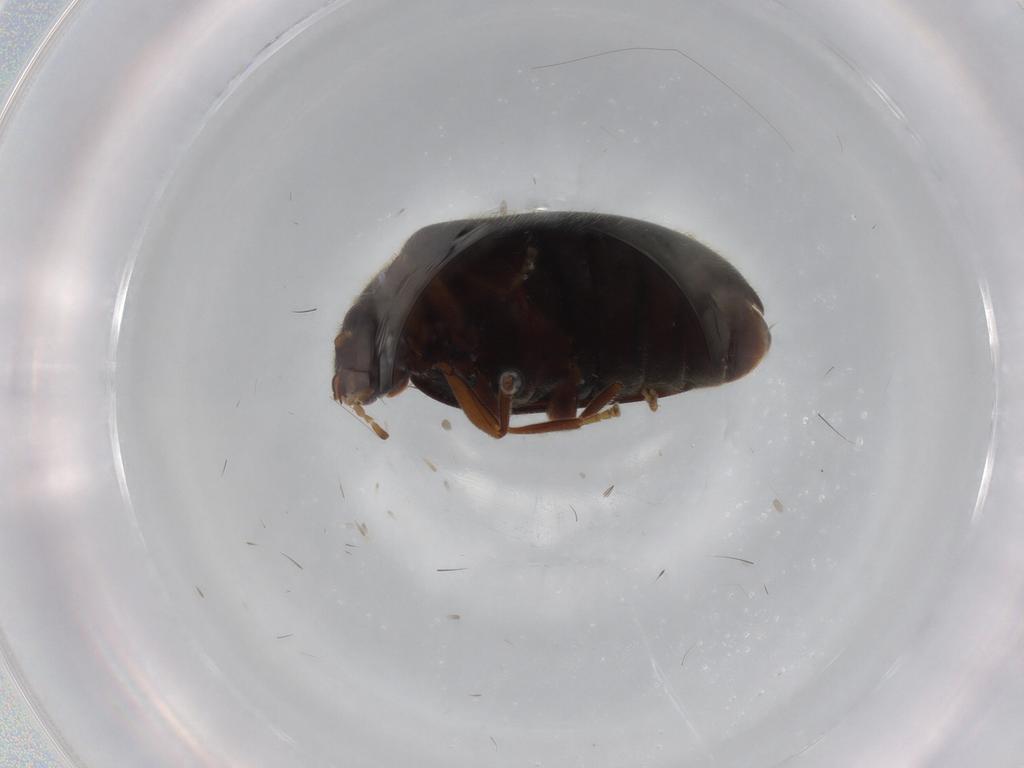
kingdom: Animalia
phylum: Arthropoda
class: Insecta
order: Coleoptera
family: Scirtidae
